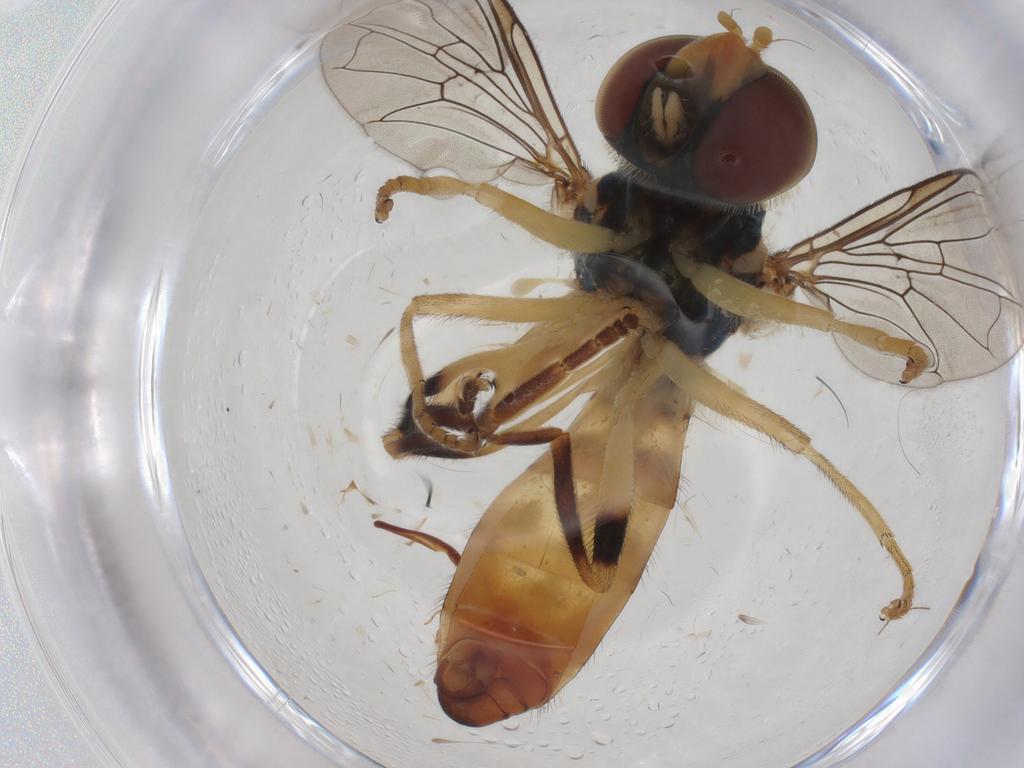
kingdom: Animalia
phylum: Arthropoda
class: Insecta
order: Diptera
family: Syrphidae
